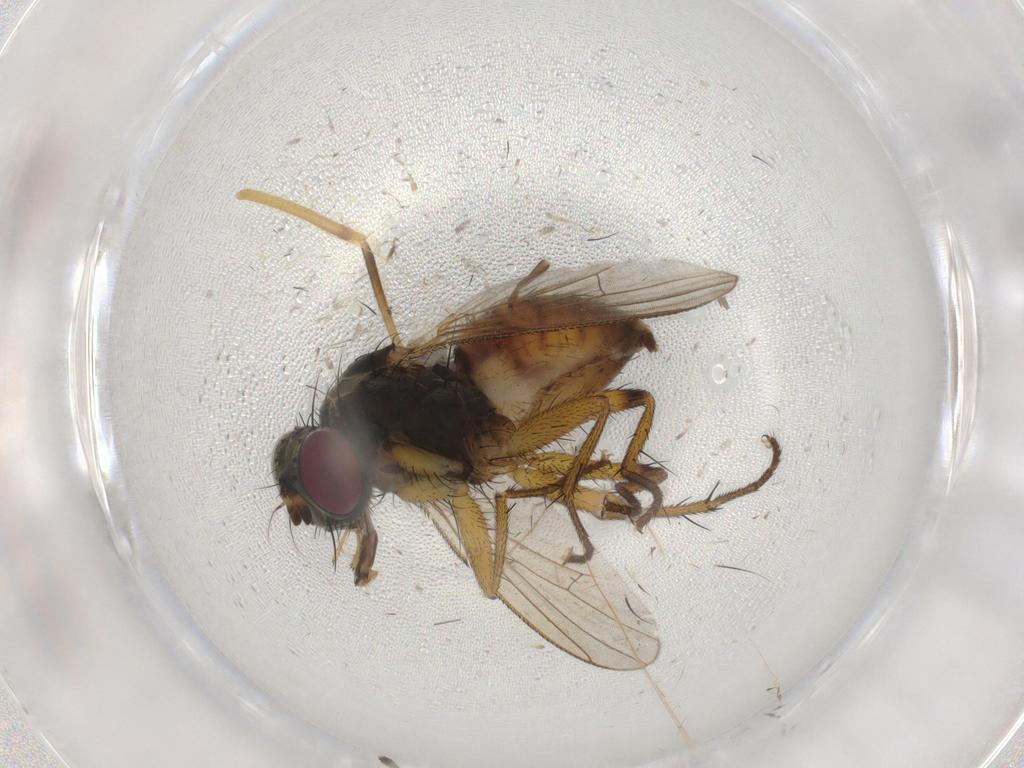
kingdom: Animalia
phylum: Arthropoda
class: Insecta
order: Diptera
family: Muscidae
